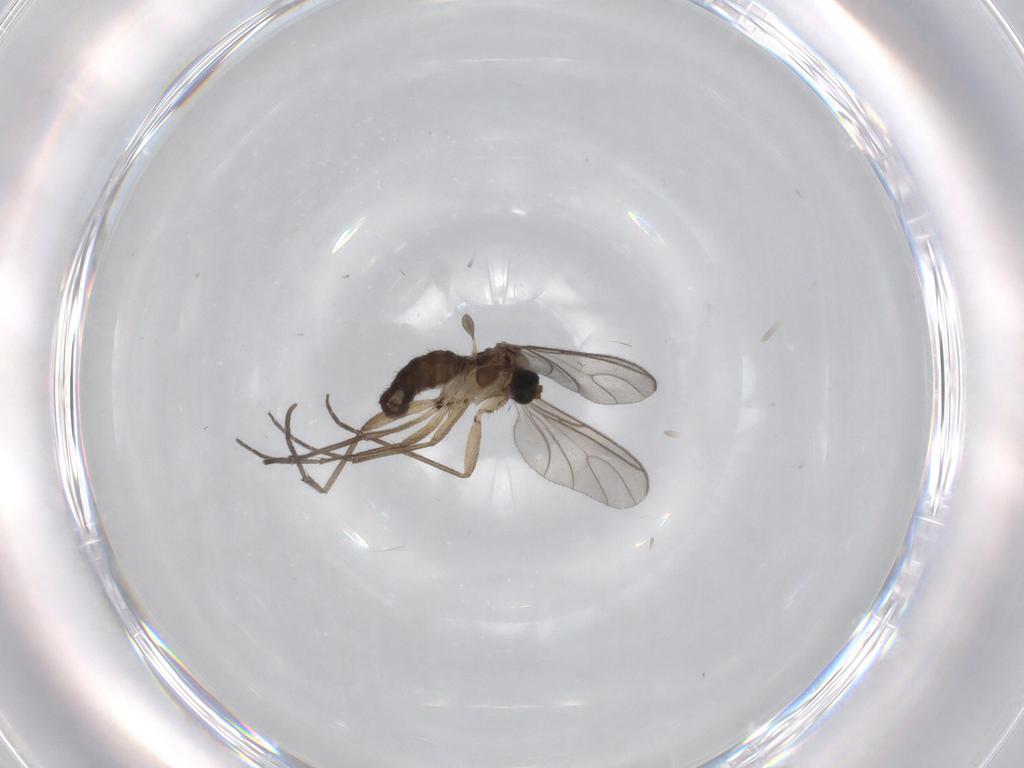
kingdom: Animalia
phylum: Arthropoda
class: Insecta
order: Diptera
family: Sciaridae
